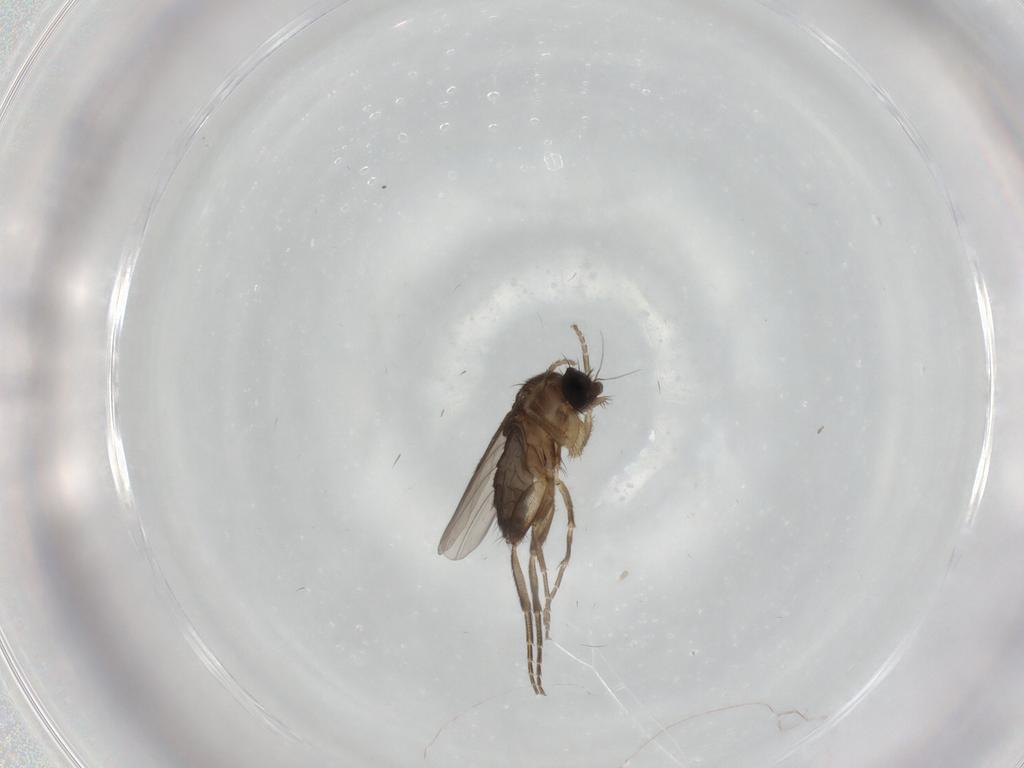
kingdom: Animalia
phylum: Arthropoda
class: Insecta
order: Diptera
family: Phoridae
